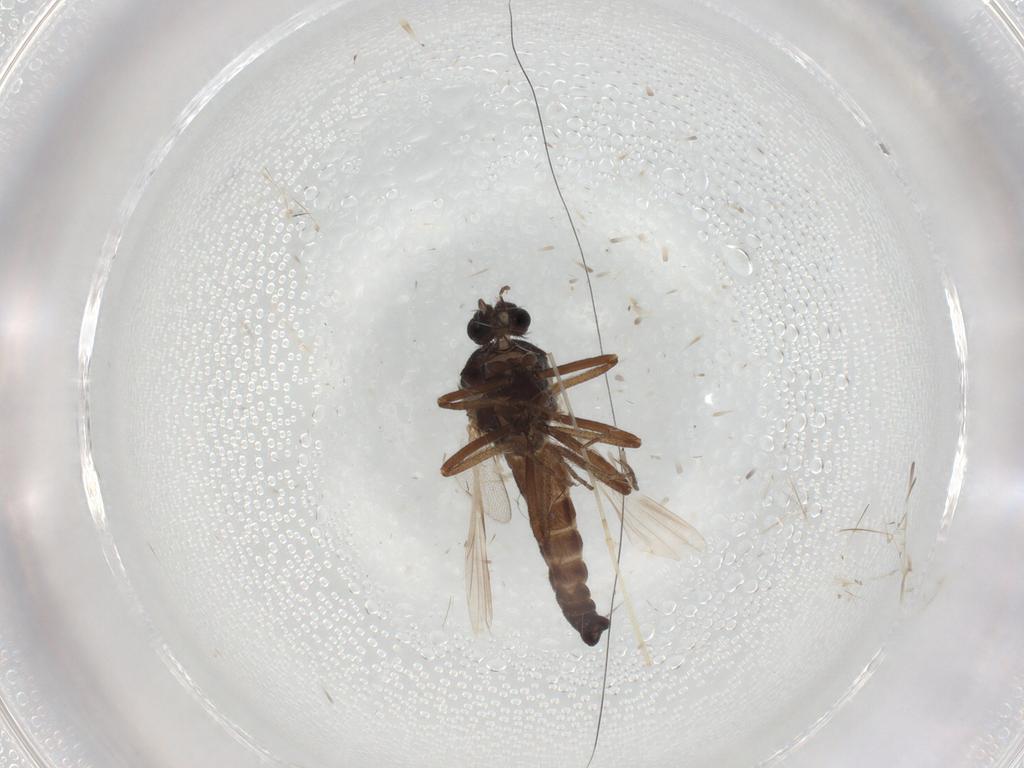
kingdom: Animalia
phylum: Arthropoda
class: Insecta
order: Diptera
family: Ceratopogonidae
